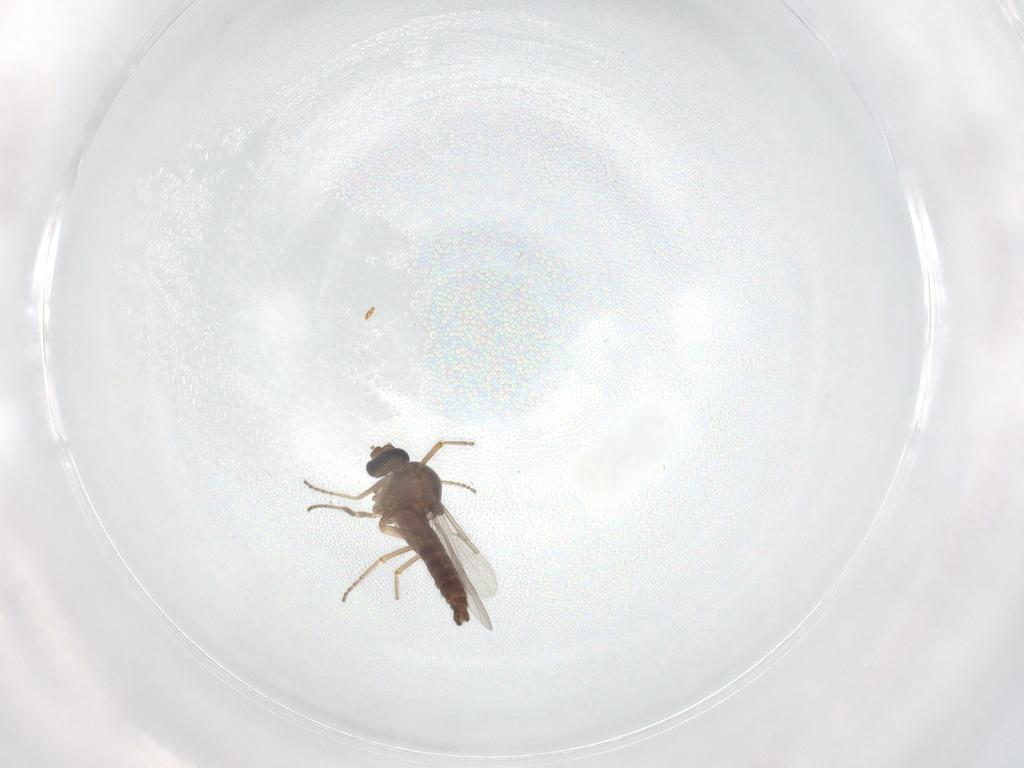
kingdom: Animalia
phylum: Arthropoda
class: Insecta
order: Diptera
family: Ceratopogonidae
